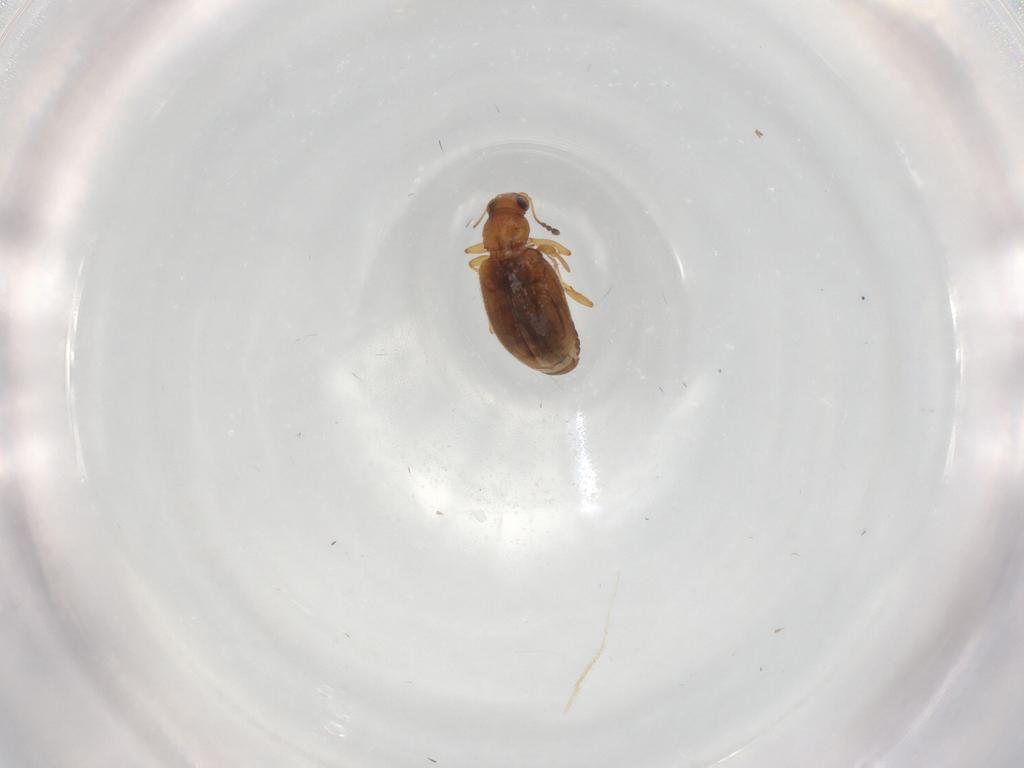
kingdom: Animalia
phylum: Arthropoda
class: Insecta
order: Coleoptera
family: Latridiidae
